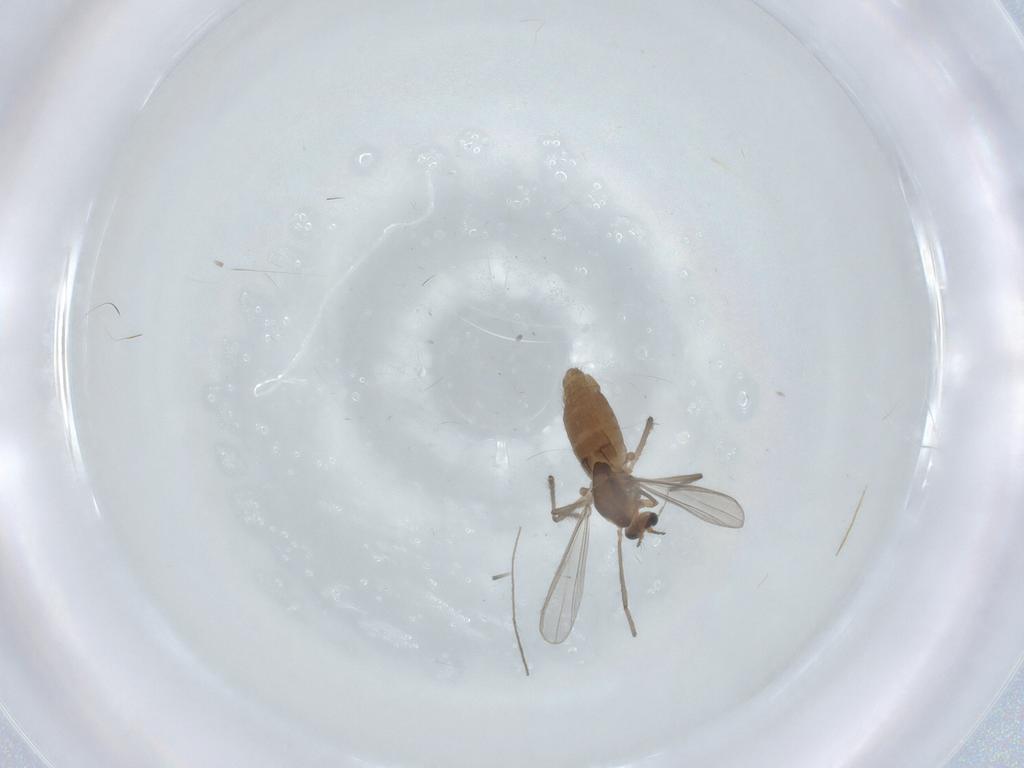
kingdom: Animalia
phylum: Arthropoda
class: Insecta
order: Diptera
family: Chironomidae
